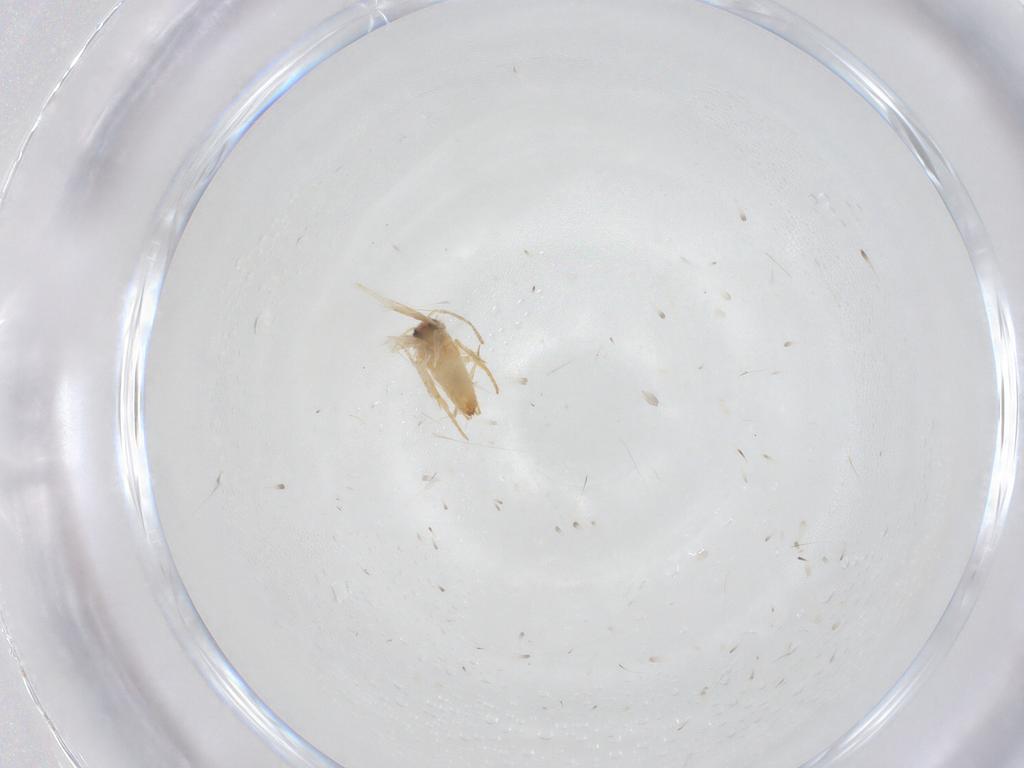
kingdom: Animalia
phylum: Arthropoda
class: Insecta
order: Lepidoptera
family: Crambidae
